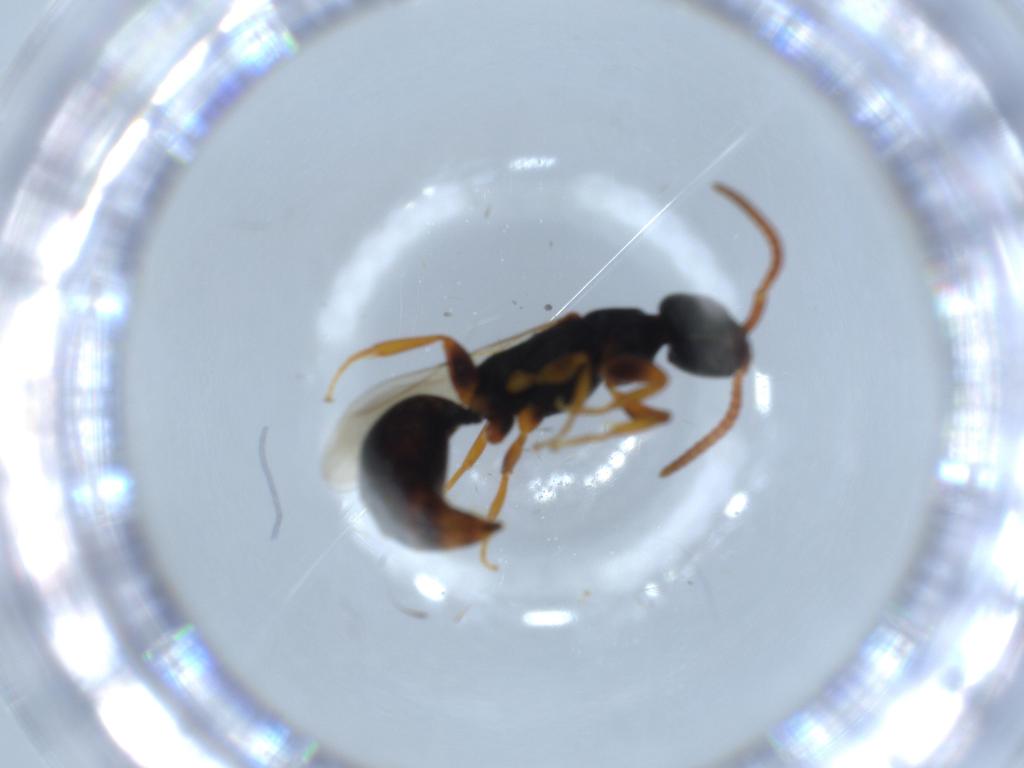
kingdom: Animalia
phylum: Arthropoda
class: Insecta
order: Hymenoptera
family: Bethylidae
